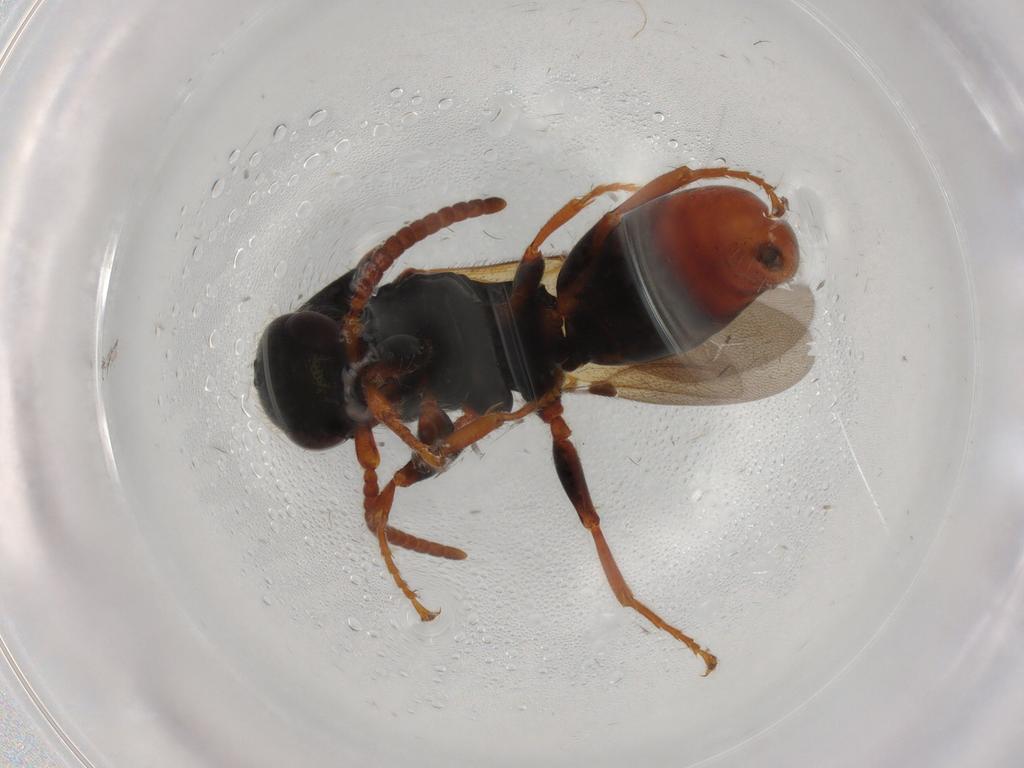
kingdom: Animalia
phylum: Arthropoda
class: Insecta
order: Hymenoptera
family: Bethylidae
